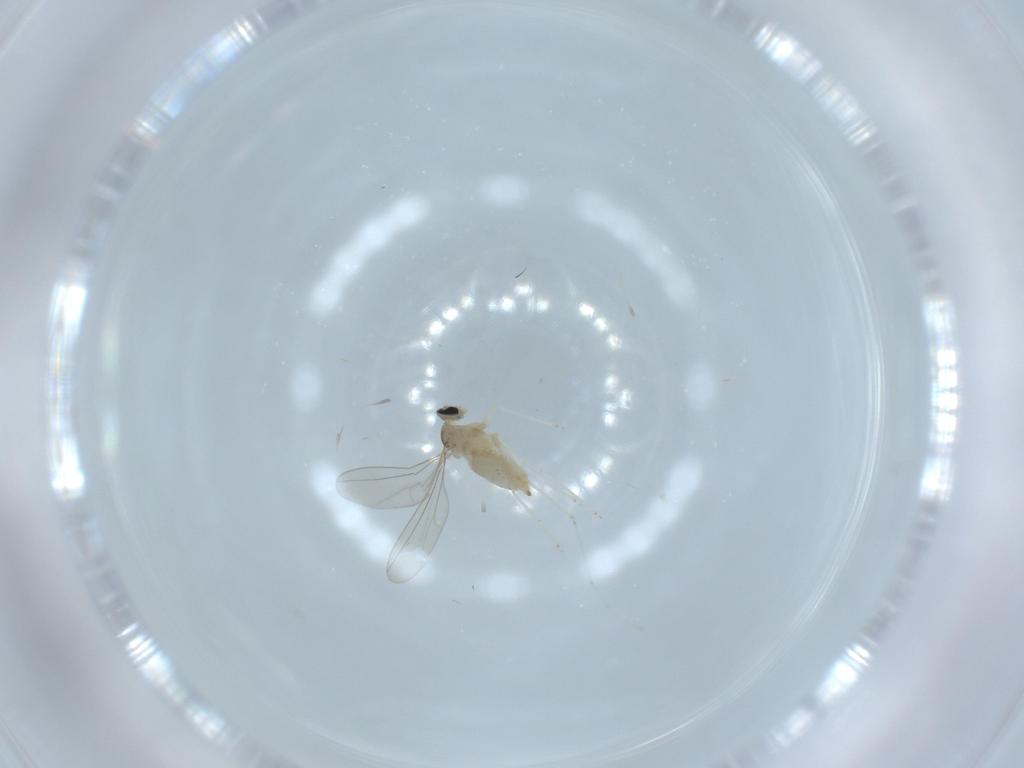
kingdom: Animalia
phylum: Arthropoda
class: Insecta
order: Diptera
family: Cecidomyiidae
